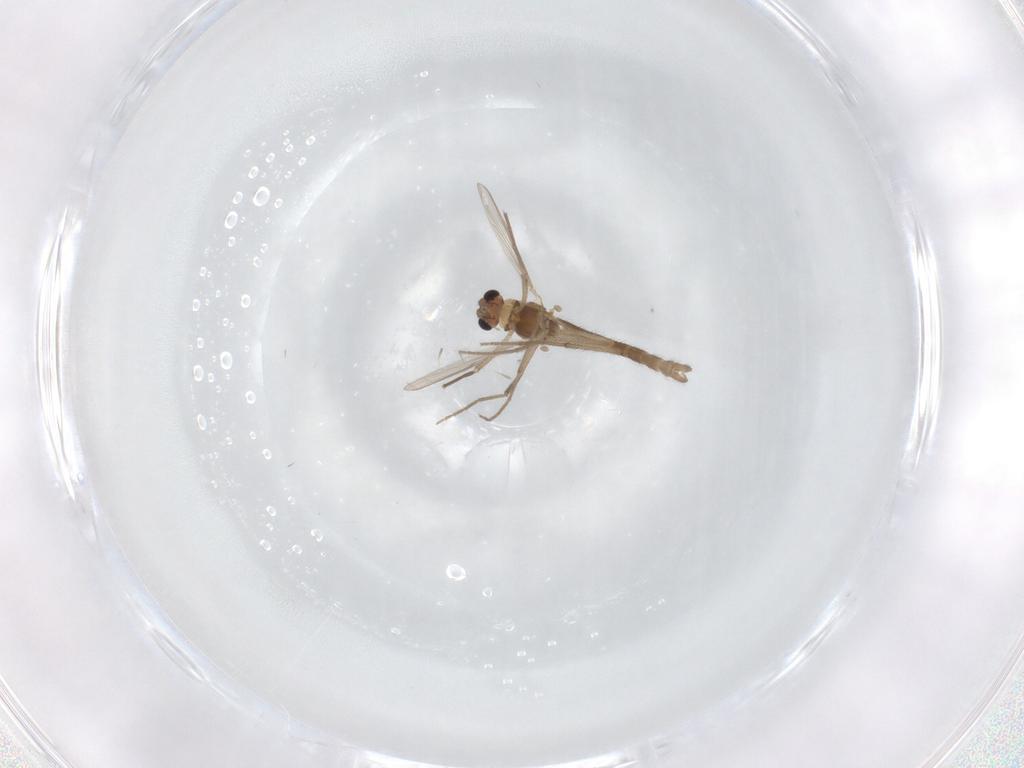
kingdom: Animalia
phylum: Arthropoda
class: Insecta
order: Diptera
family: Chironomidae
